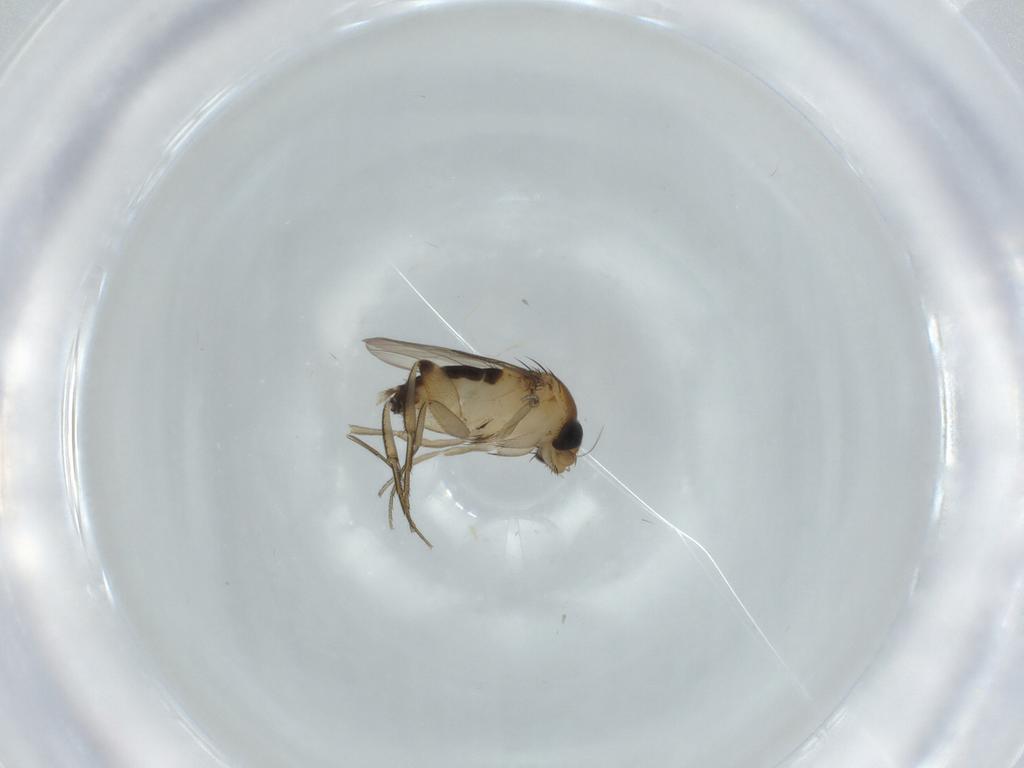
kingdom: Animalia
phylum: Arthropoda
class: Insecta
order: Diptera
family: Phoridae
